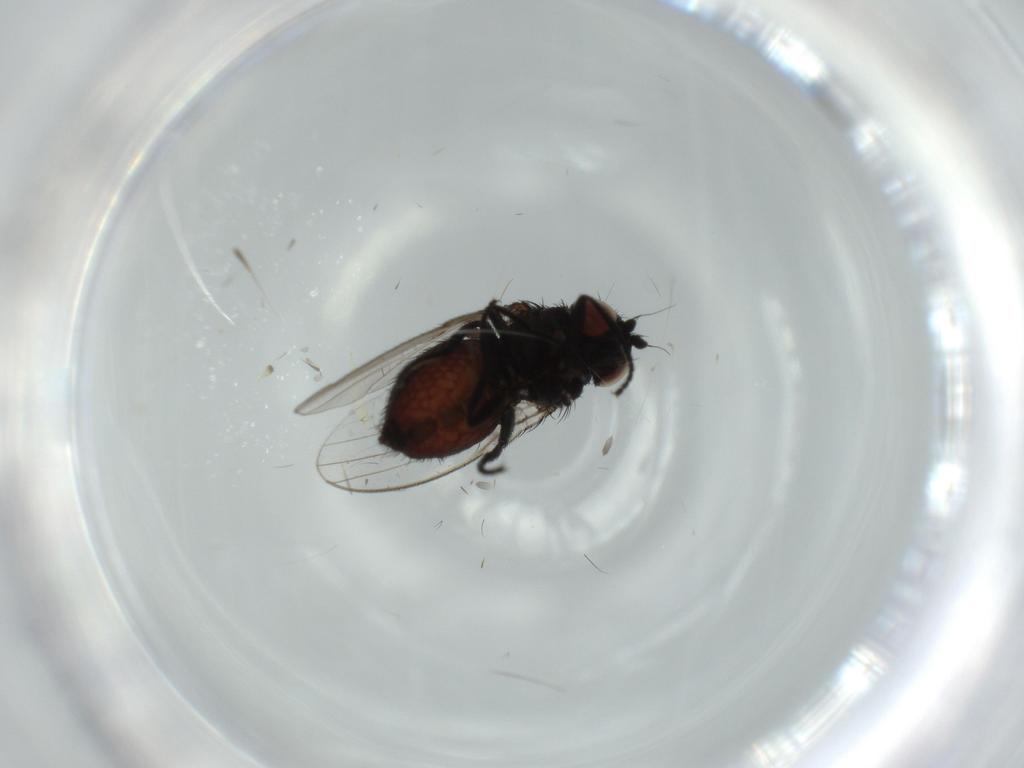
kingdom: Animalia
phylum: Arthropoda
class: Insecta
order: Diptera
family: Milichiidae
